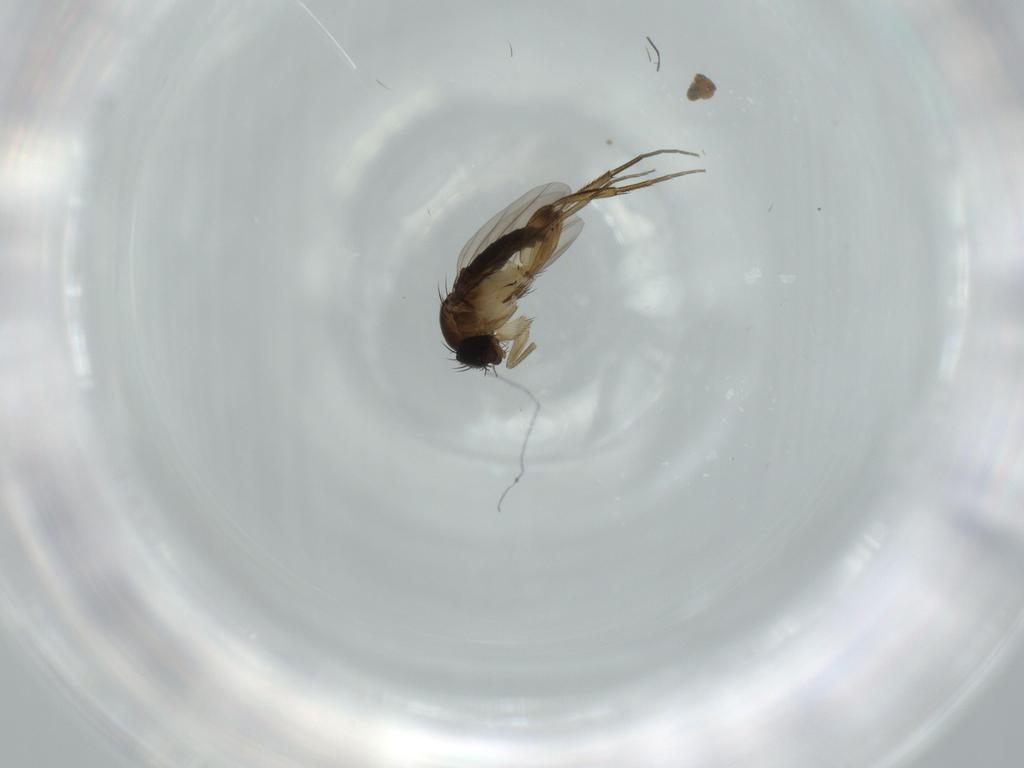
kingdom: Animalia
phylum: Arthropoda
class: Insecta
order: Diptera
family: Phoridae
